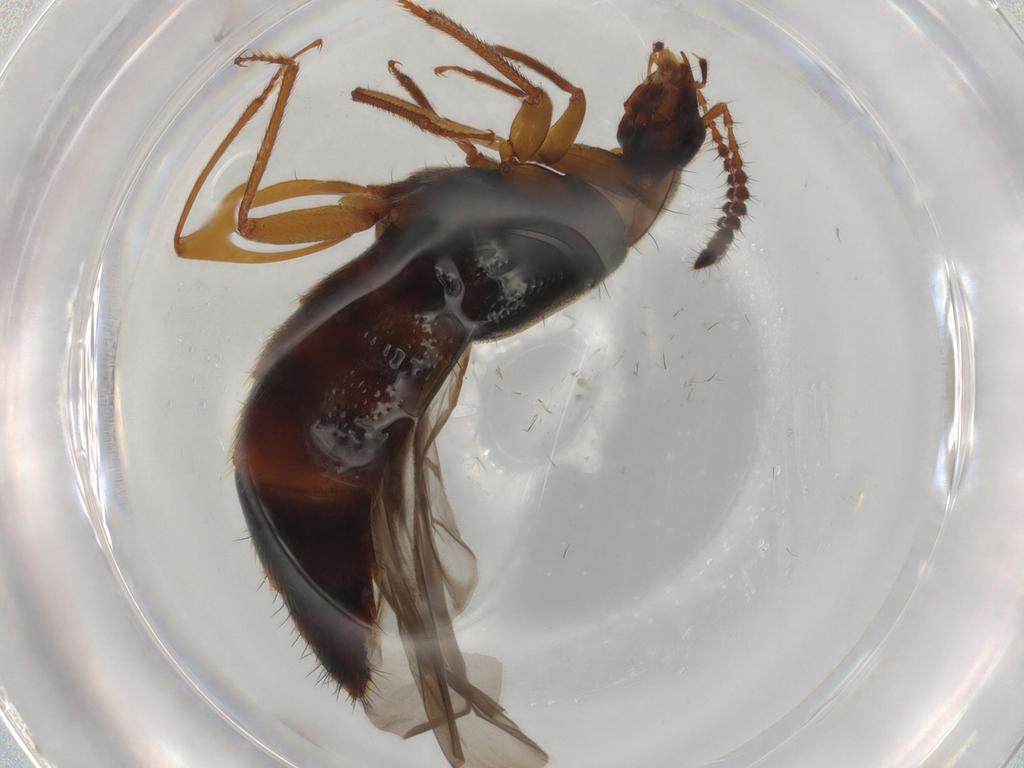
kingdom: Animalia
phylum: Arthropoda
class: Insecta
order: Coleoptera
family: Staphylinidae
